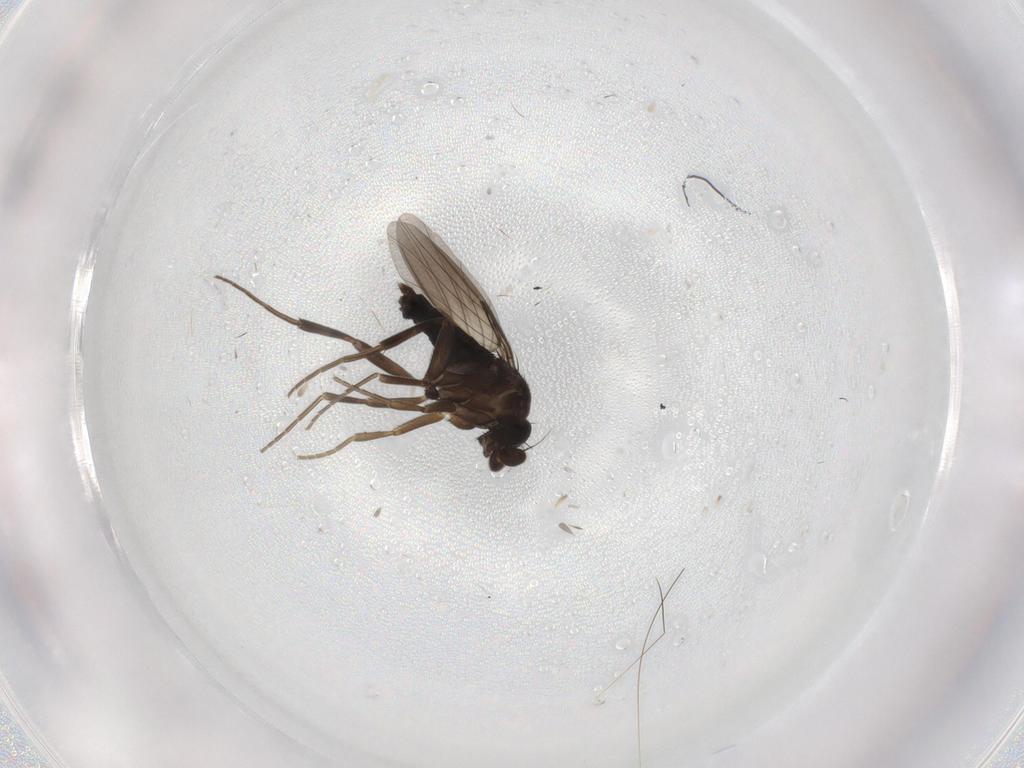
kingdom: Animalia
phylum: Arthropoda
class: Insecta
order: Diptera
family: Phoridae
